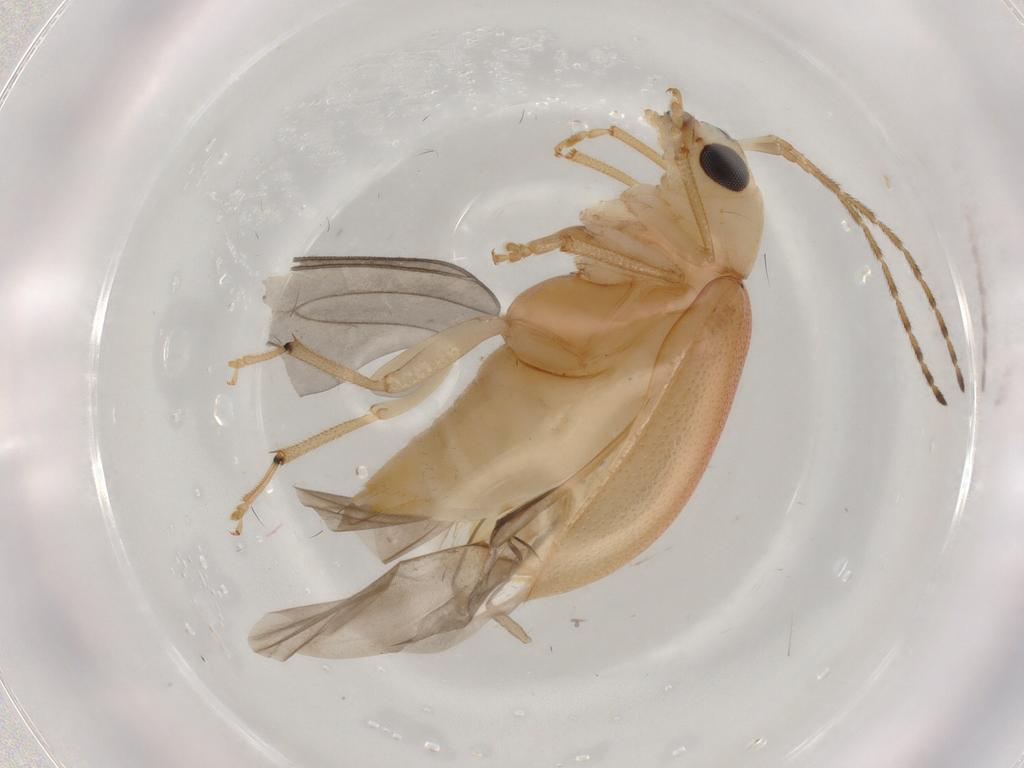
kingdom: Animalia
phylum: Arthropoda
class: Insecta
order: Coleoptera
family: Chrysomelidae
